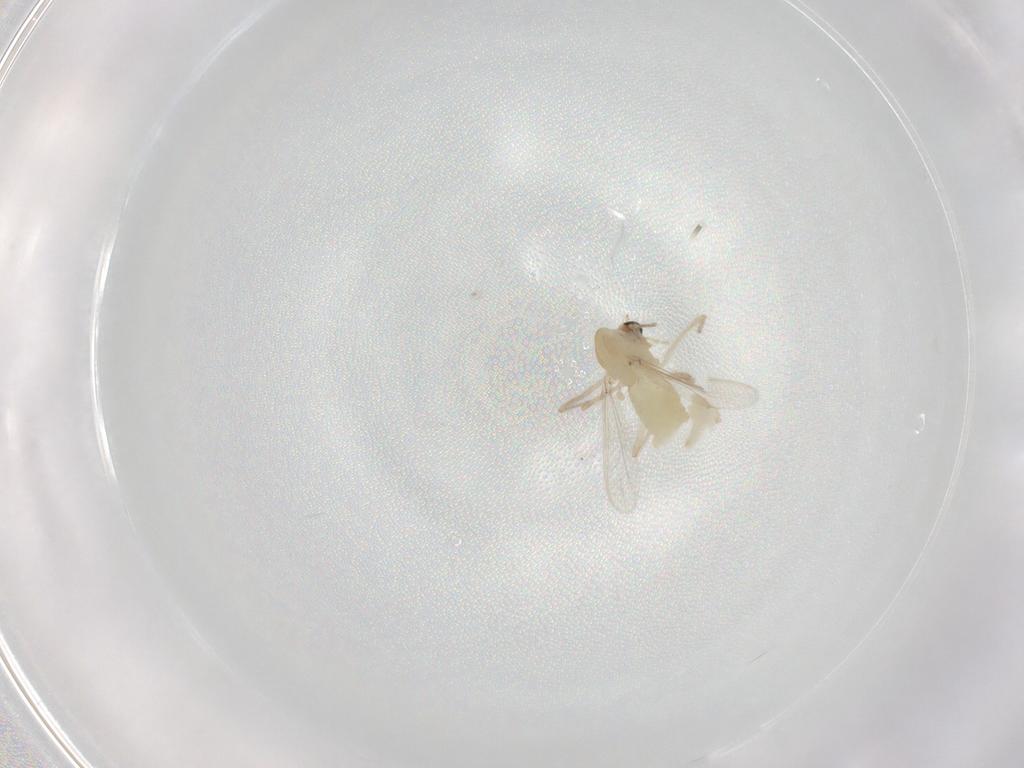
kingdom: Animalia
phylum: Arthropoda
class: Insecta
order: Diptera
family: Chironomidae
